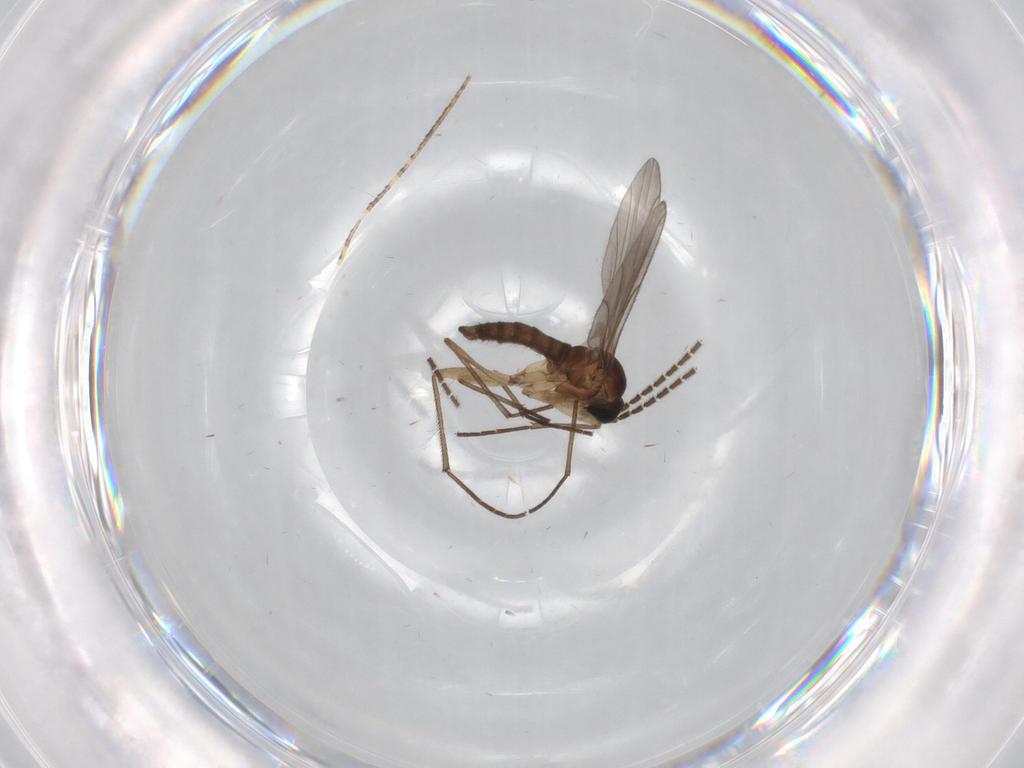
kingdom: Animalia
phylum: Arthropoda
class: Insecta
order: Diptera
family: Sciaridae
